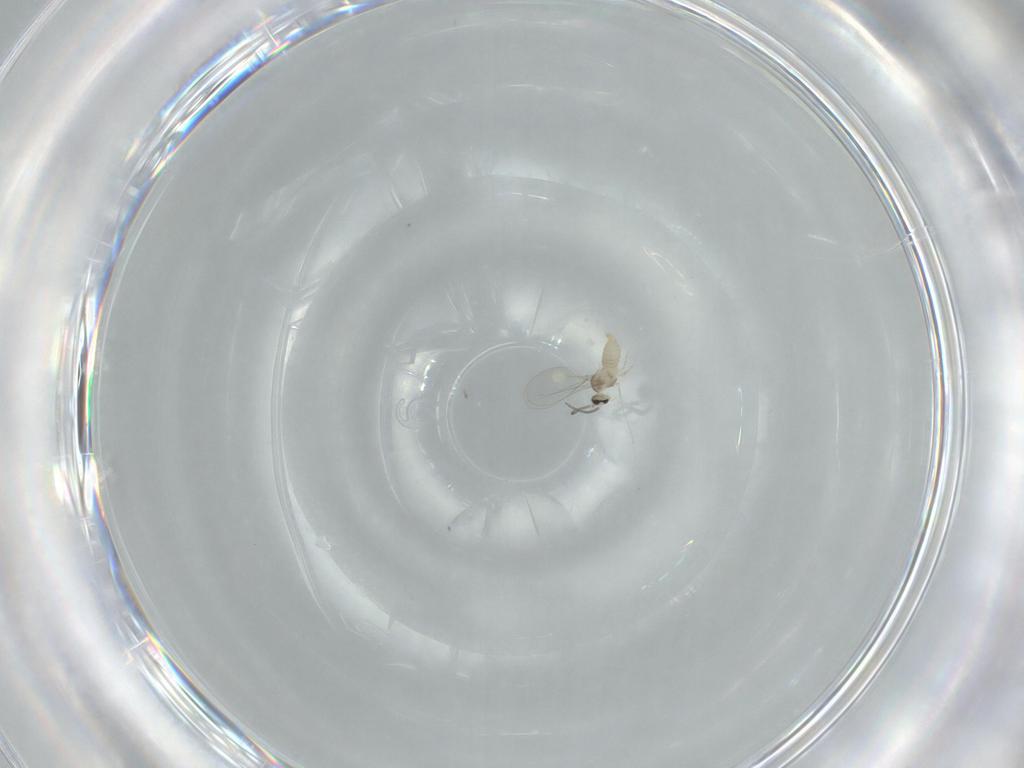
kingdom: Animalia
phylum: Arthropoda
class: Insecta
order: Diptera
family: Cecidomyiidae
